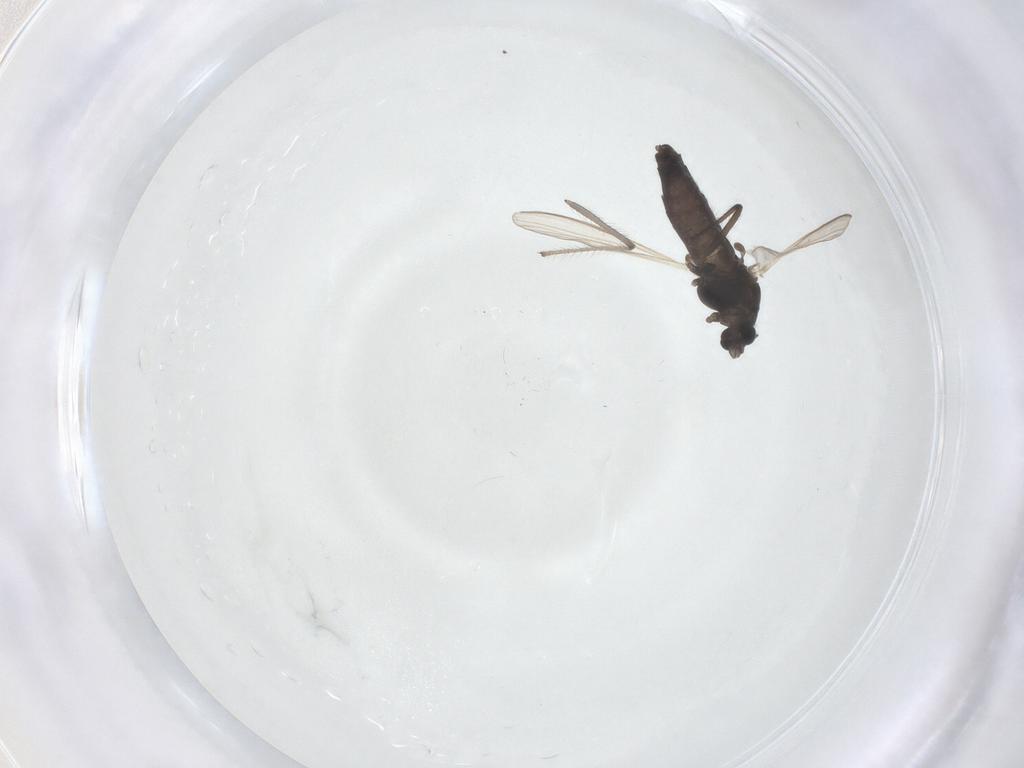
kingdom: Animalia
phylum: Arthropoda
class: Insecta
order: Diptera
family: Chironomidae
